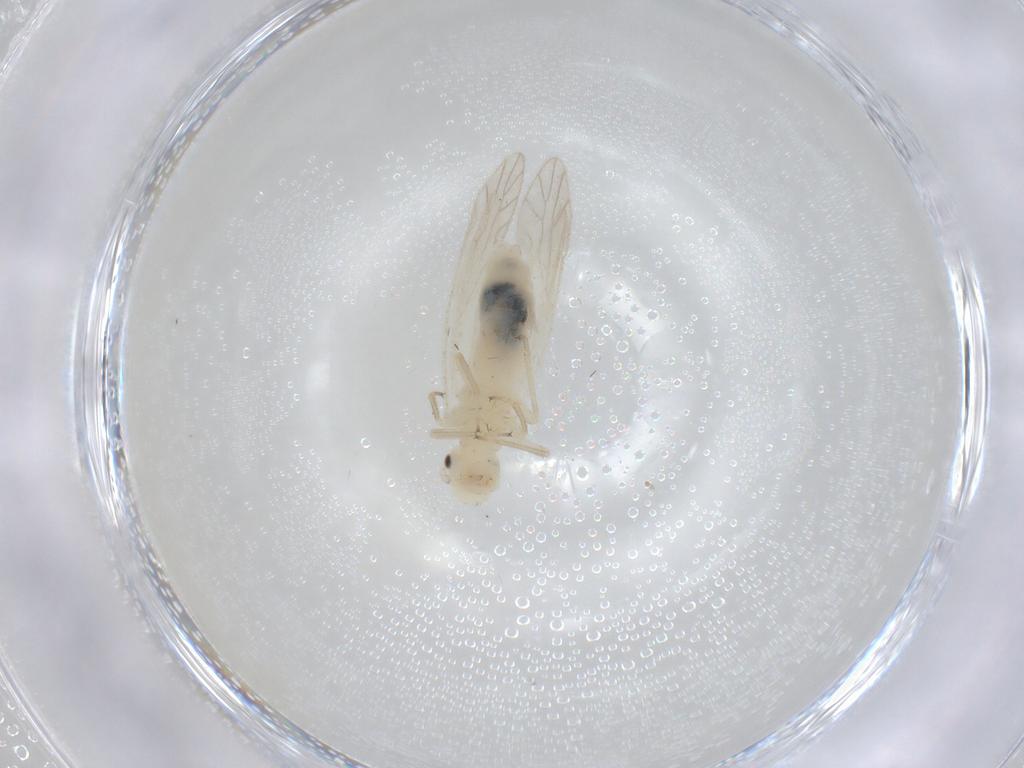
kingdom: Animalia
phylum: Arthropoda
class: Insecta
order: Psocodea
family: Caeciliusidae
